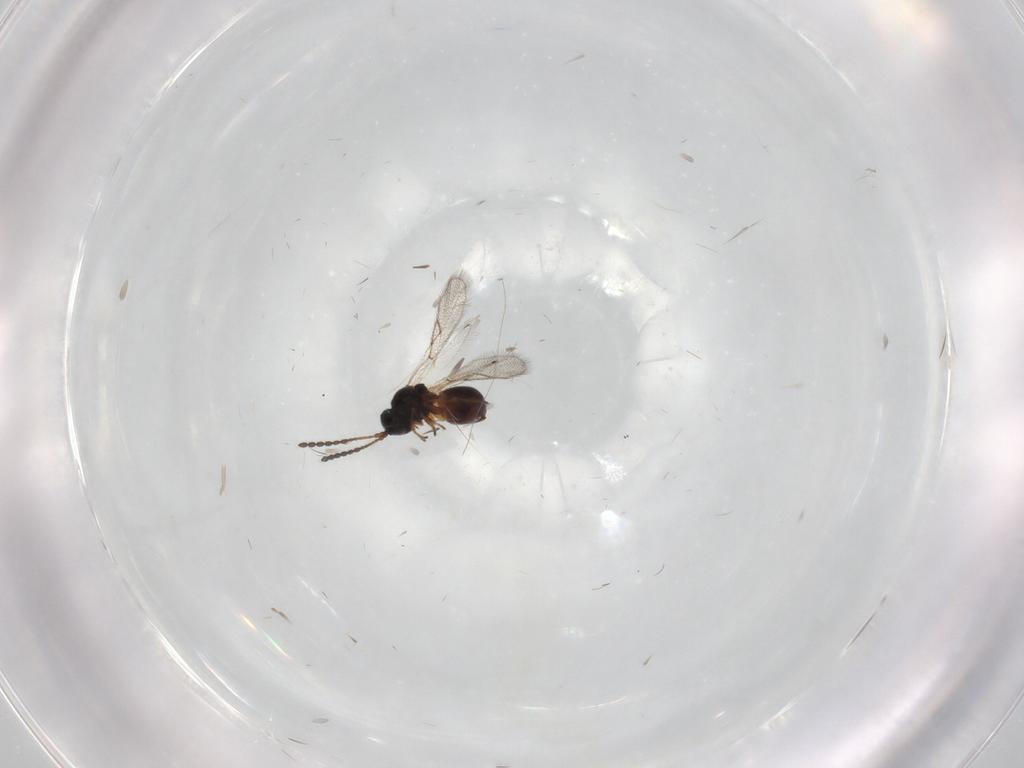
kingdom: Animalia
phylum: Arthropoda
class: Insecta
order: Hymenoptera
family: Figitidae
